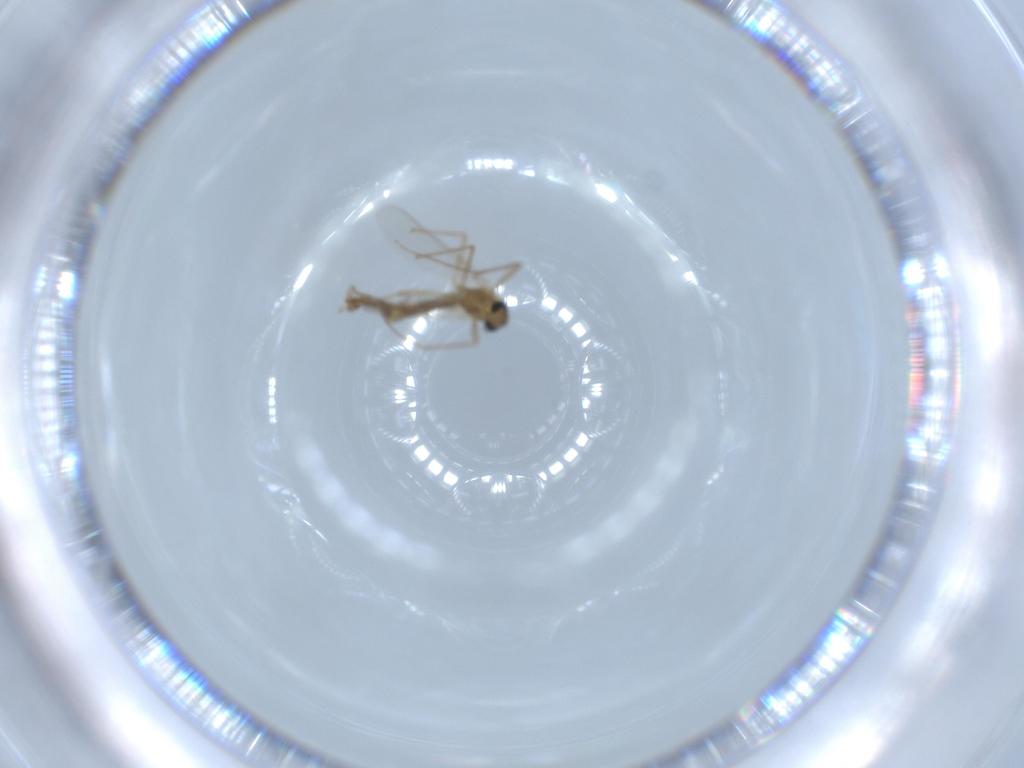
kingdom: Animalia
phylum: Arthropoda
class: Insecta
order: Diptera
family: Chironomidae
